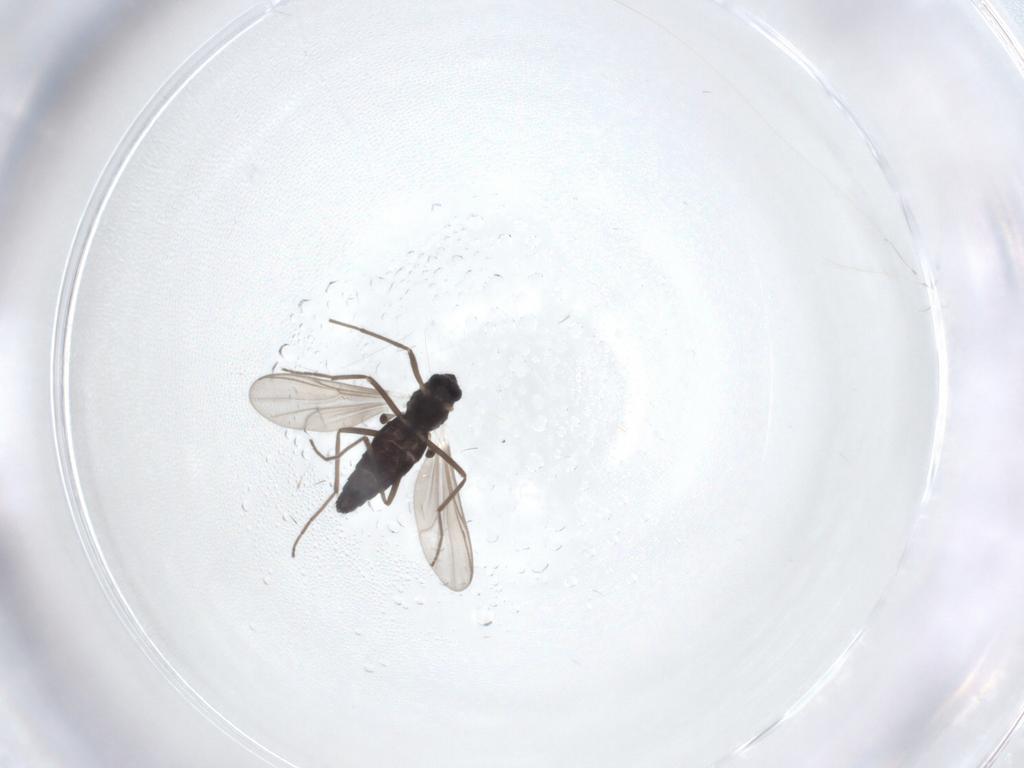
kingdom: Animalia
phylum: Arthropoda
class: Insecta
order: Diptera
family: Chironomidae
